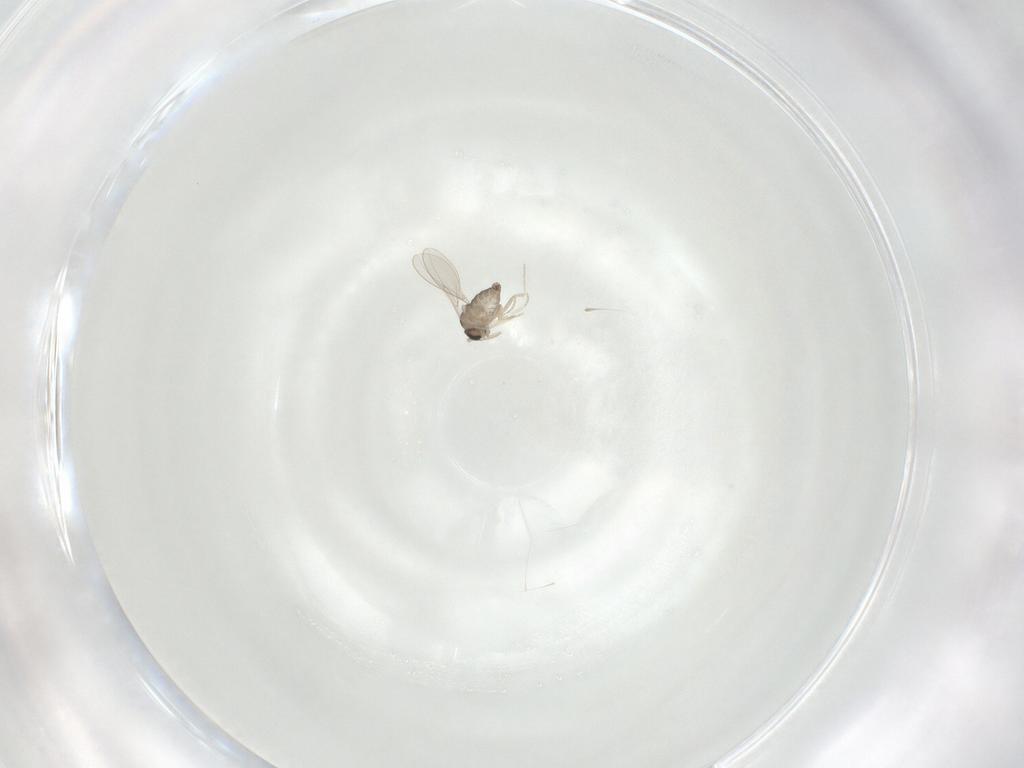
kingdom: Animalia
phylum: Arthropoda
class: Insecta
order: Diptera
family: Cecidomyiidae
